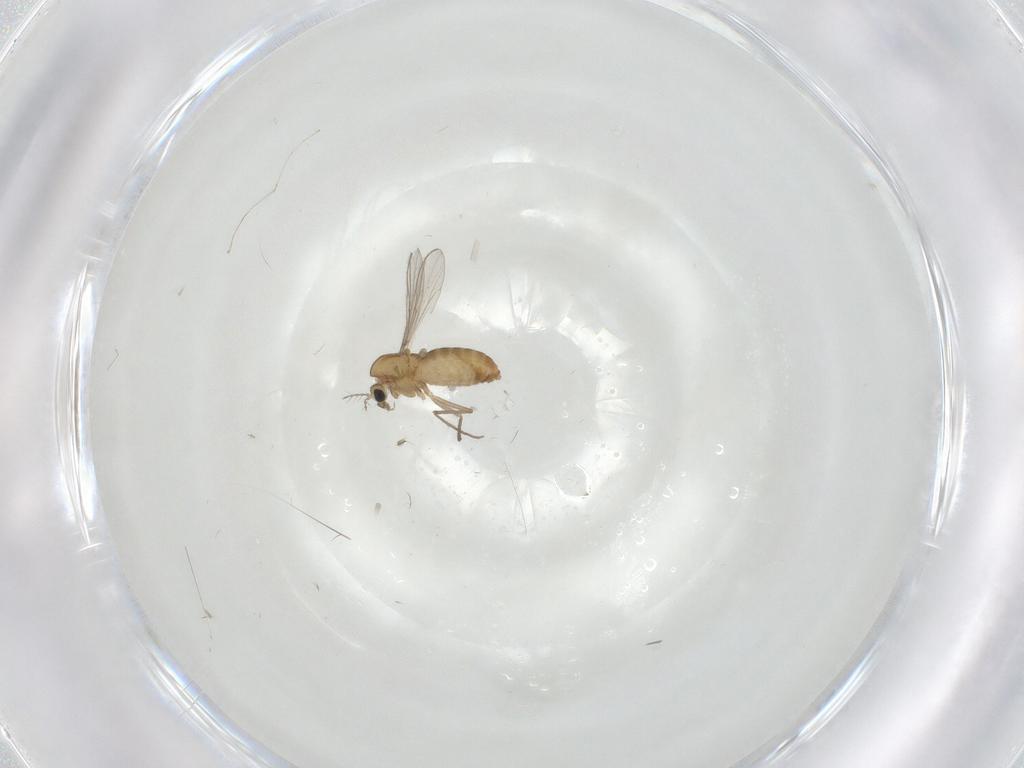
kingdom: Animalia
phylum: Arthropoda
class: Insecta
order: Diptera
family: Chironomidae
